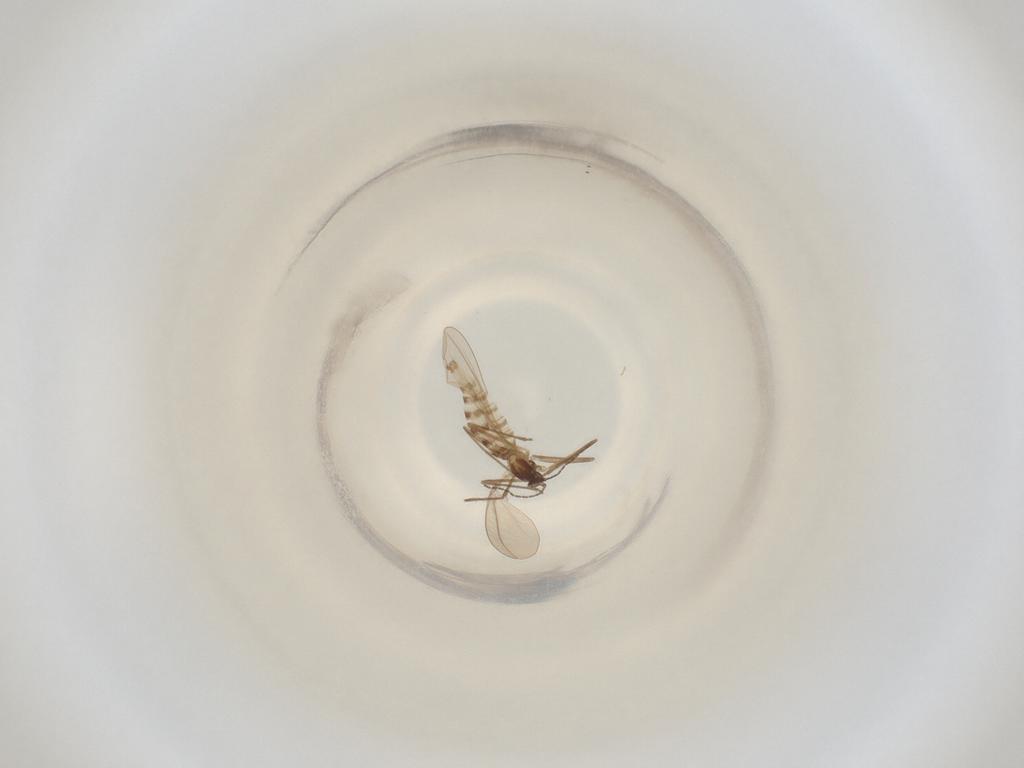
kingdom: Animalia
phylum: Arthropoda
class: Insecta
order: Diptera
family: Cecidomyiidae
